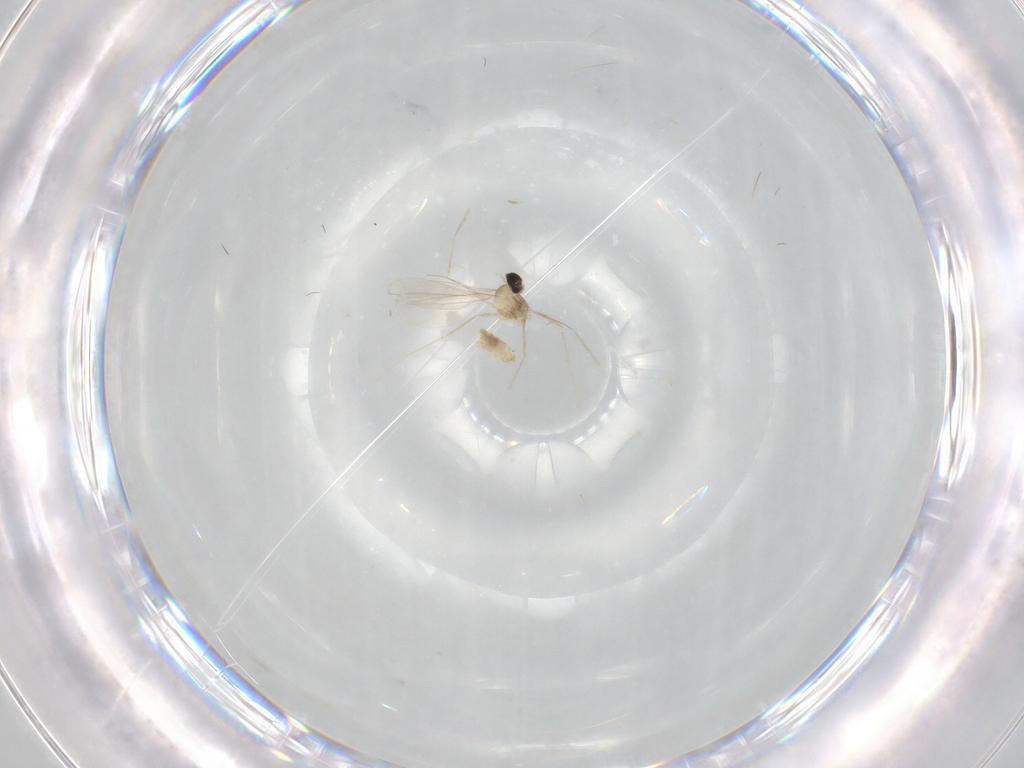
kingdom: Animalia
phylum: Arthropoda
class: Insecta
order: Diptera
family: Cecidomyiidae
